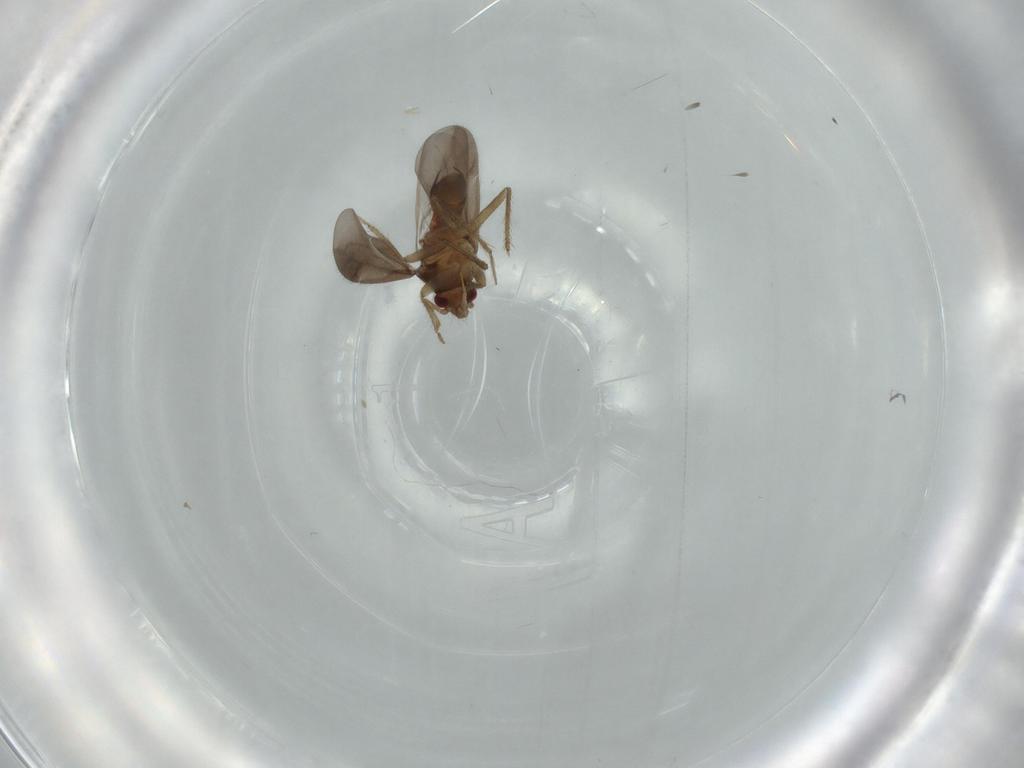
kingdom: Animalia
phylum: Arthropoda
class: Insecta
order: Hemiptera
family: Ceratocombidae
